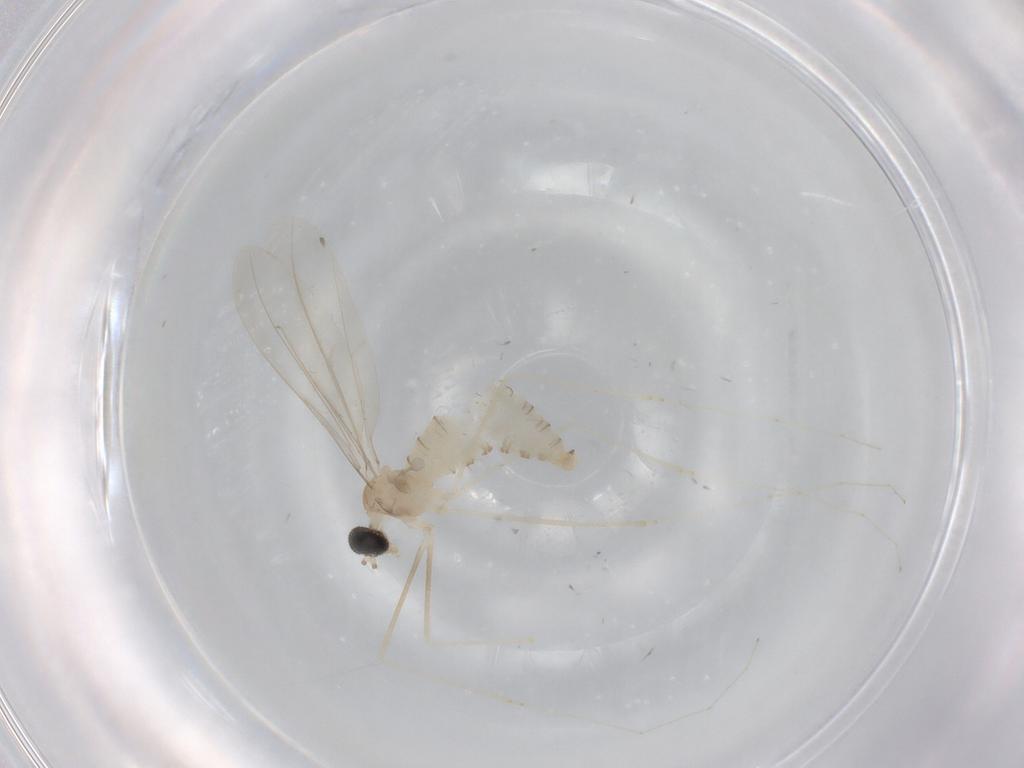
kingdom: Animalia
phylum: Arthropoda
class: Insecta
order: Diptera
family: Cecidomyiidae
